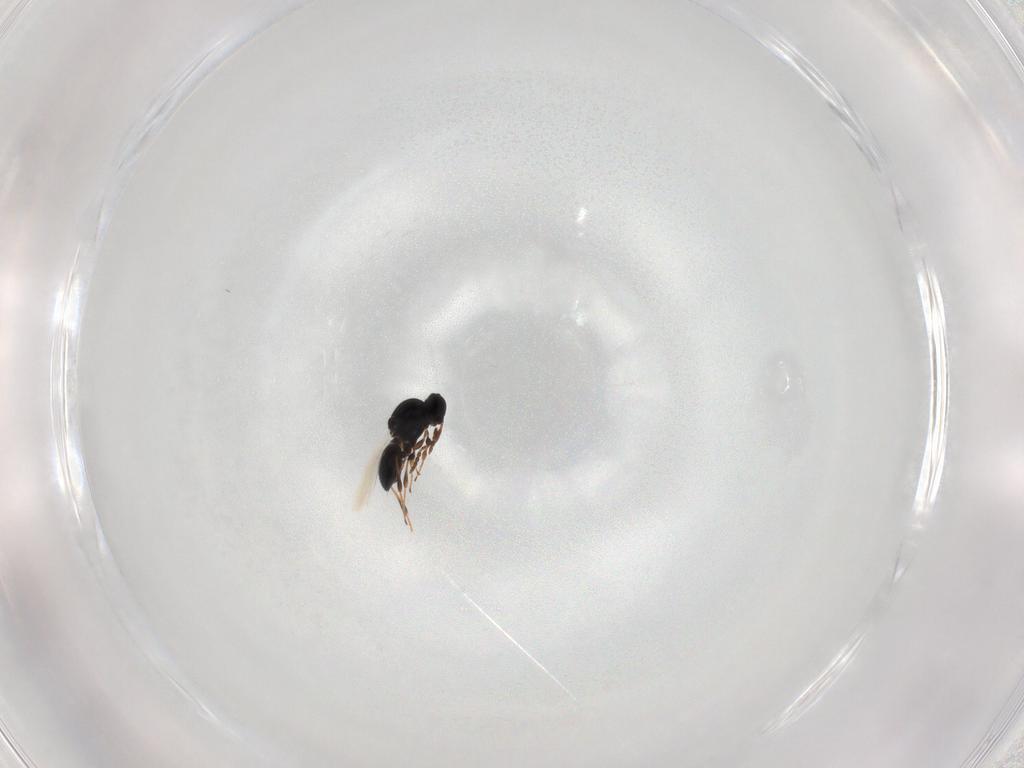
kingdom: Animalia
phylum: Arthropoda
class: Insecta
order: Hymenoptera
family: Platygastridae
